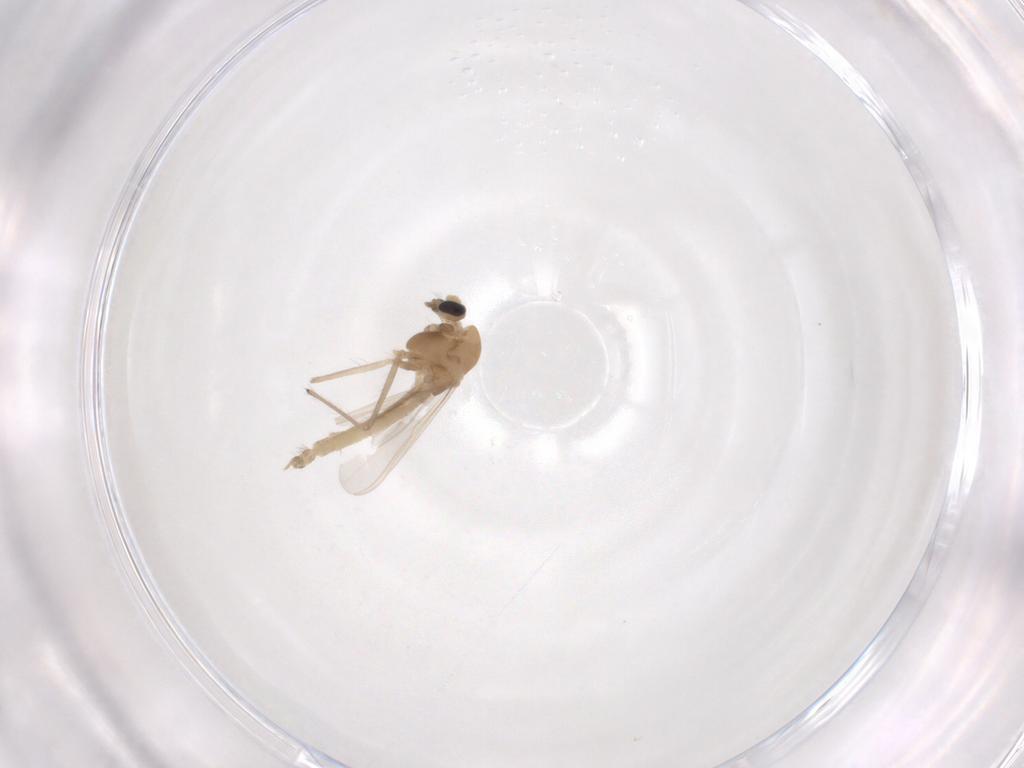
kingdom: Animalia
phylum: Arthropoda
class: Insecta
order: Diptera
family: Chironomidae
